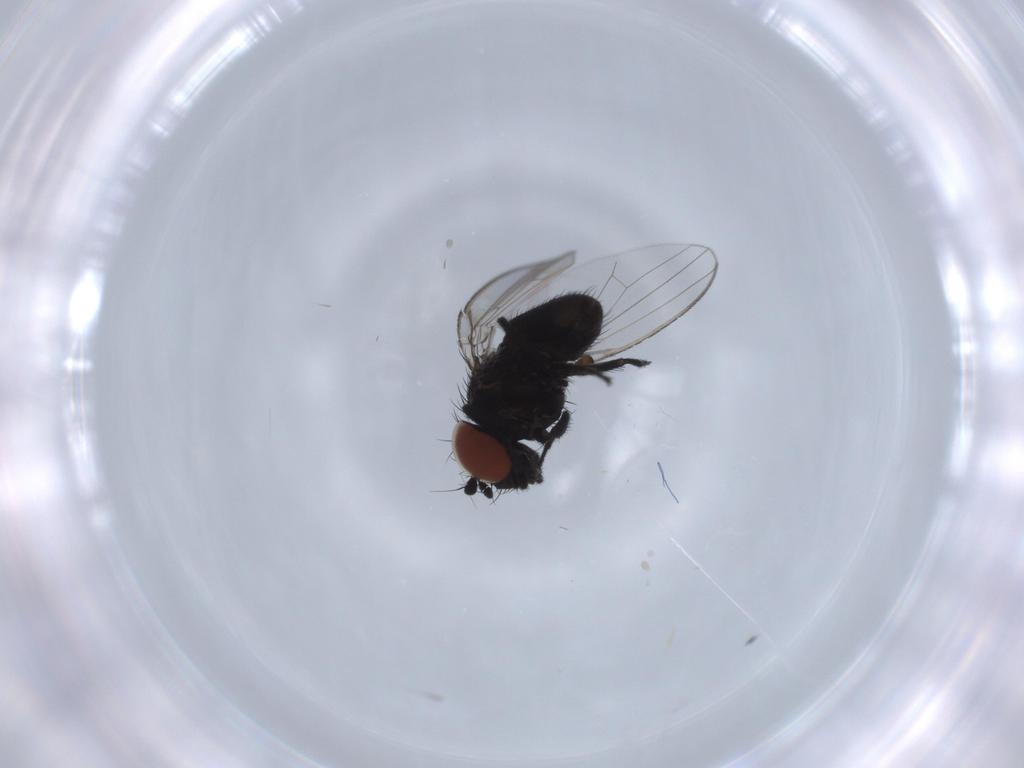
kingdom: Animalia
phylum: Arthropoda
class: Insecta
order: Diptera
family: Milichiidae
